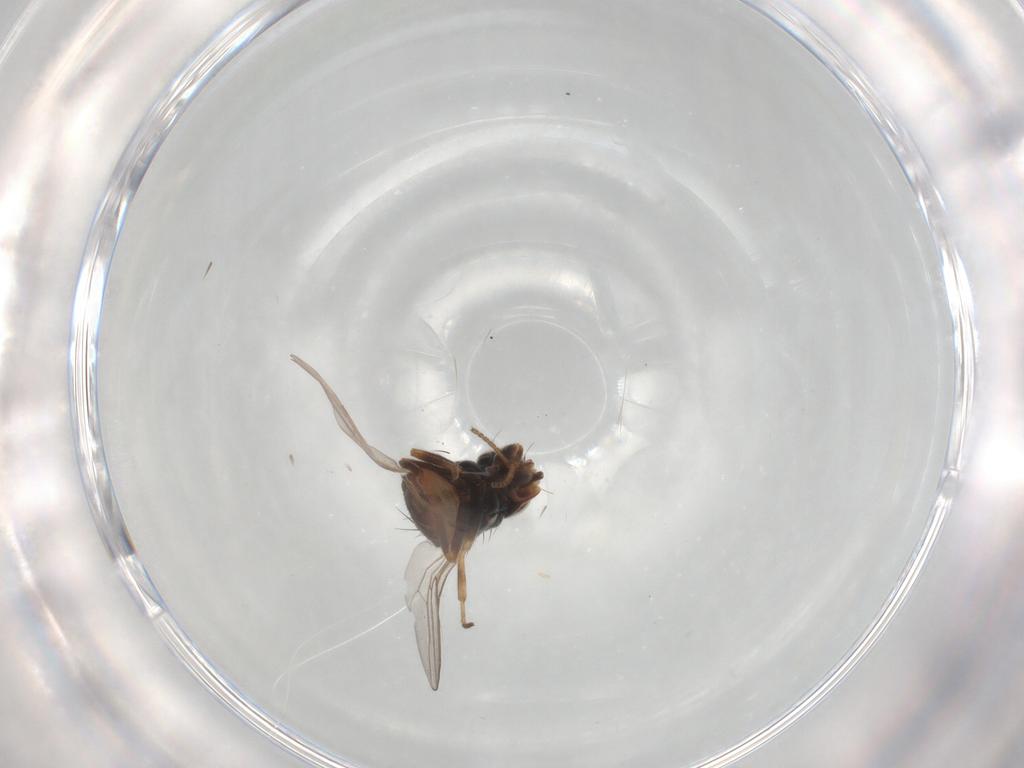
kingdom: Animalia
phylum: Arthropoda
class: Insecta
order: Diptera
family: Chloropidae
